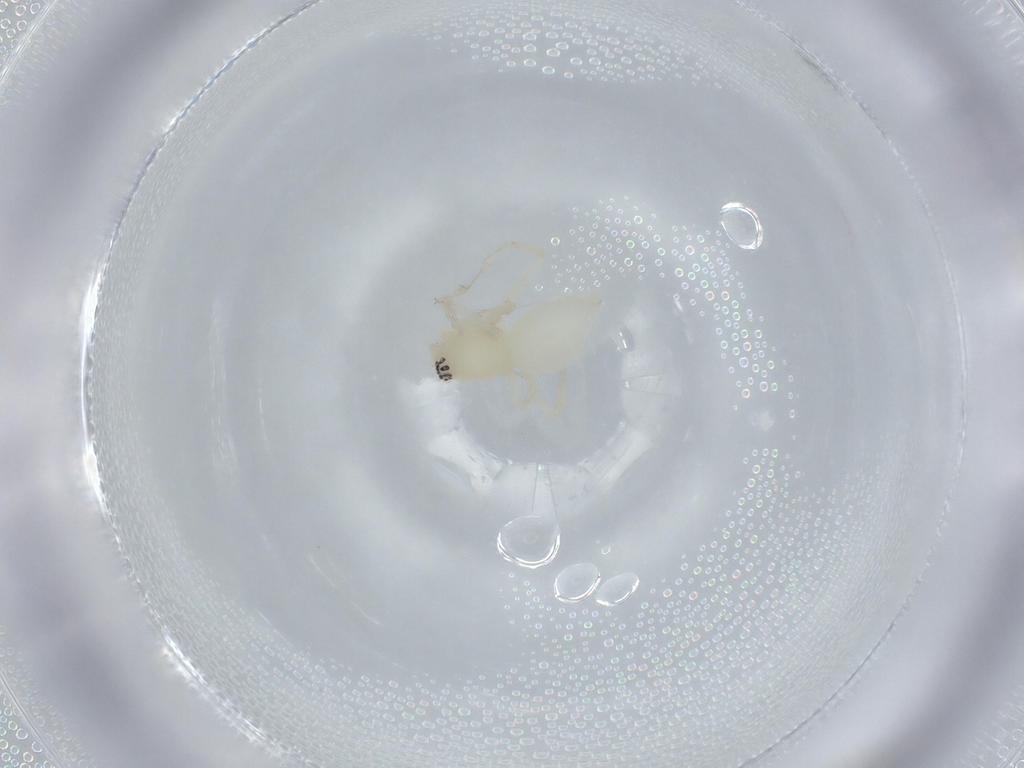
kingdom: Animalia
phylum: Arthropoda
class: Arachnida
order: Araneae
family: Anyphaenidae
